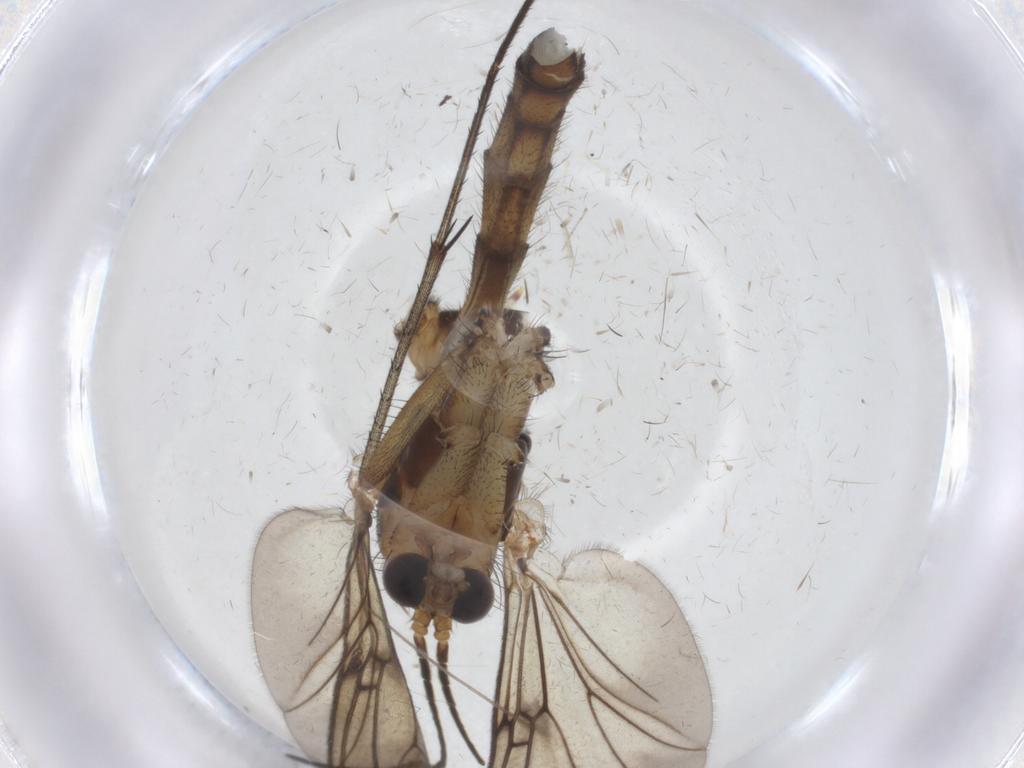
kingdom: Animalia
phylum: Arthropoda
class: Insecta
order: Diptera
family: Mycetophilidae
